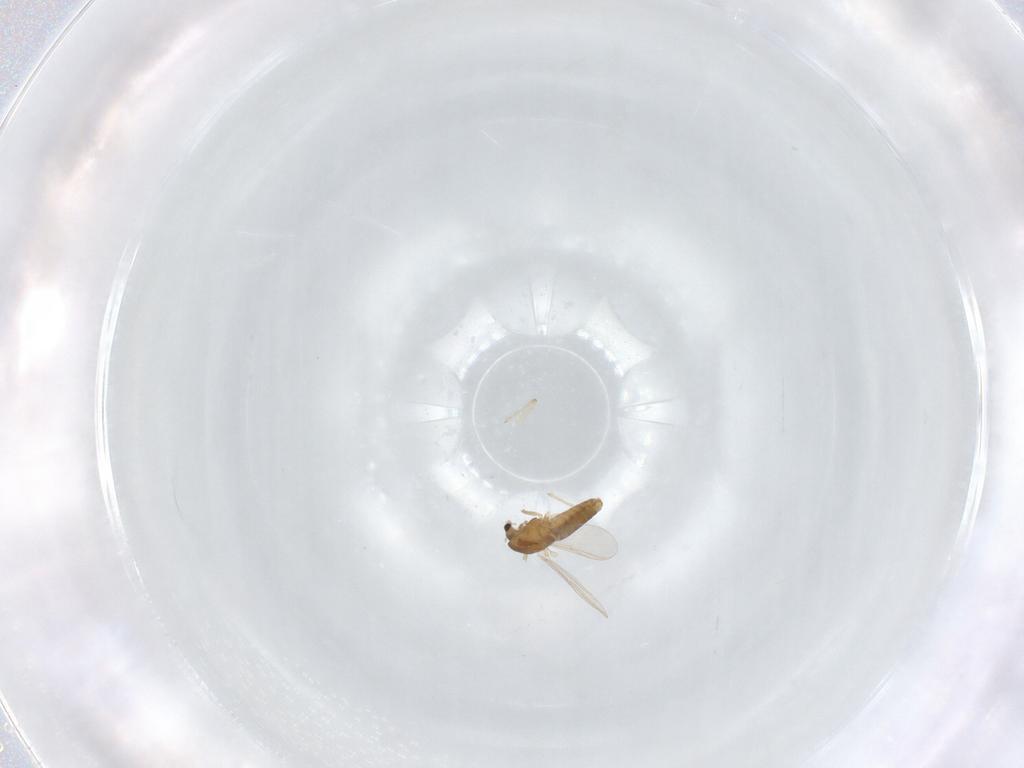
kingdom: Animalia
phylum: Arthropoda
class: Insecta
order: Diptera
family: Chironomidae
